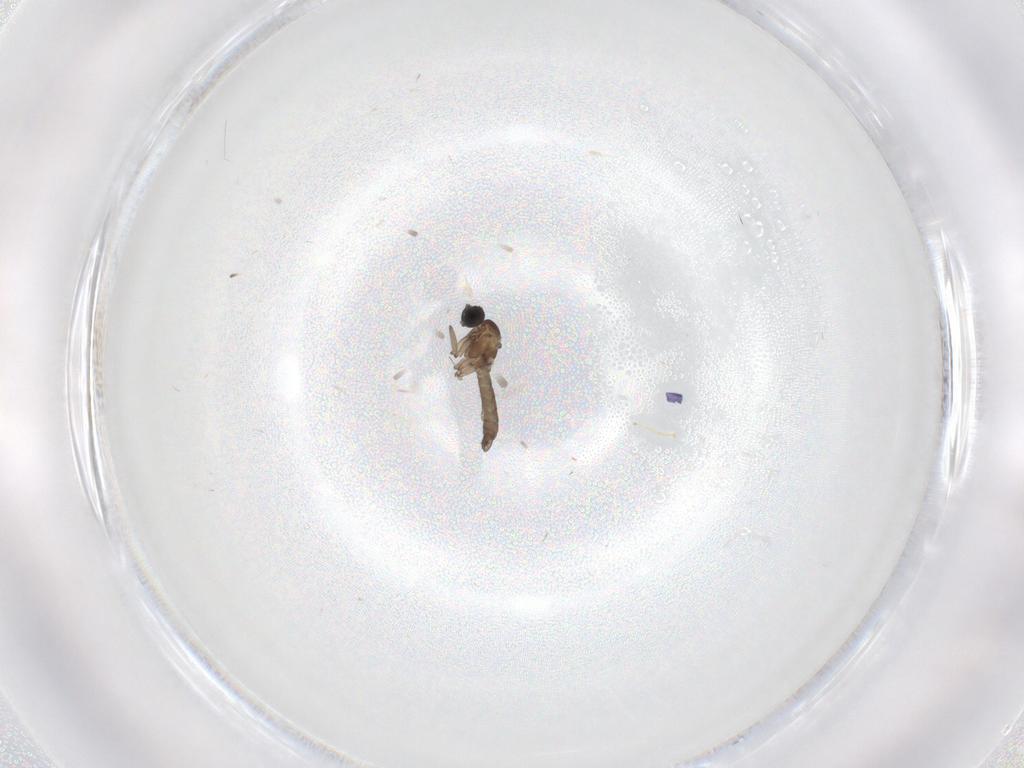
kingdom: Animalia
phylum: Arthropoda
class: Insecta
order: Diptera
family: Sciaridae
